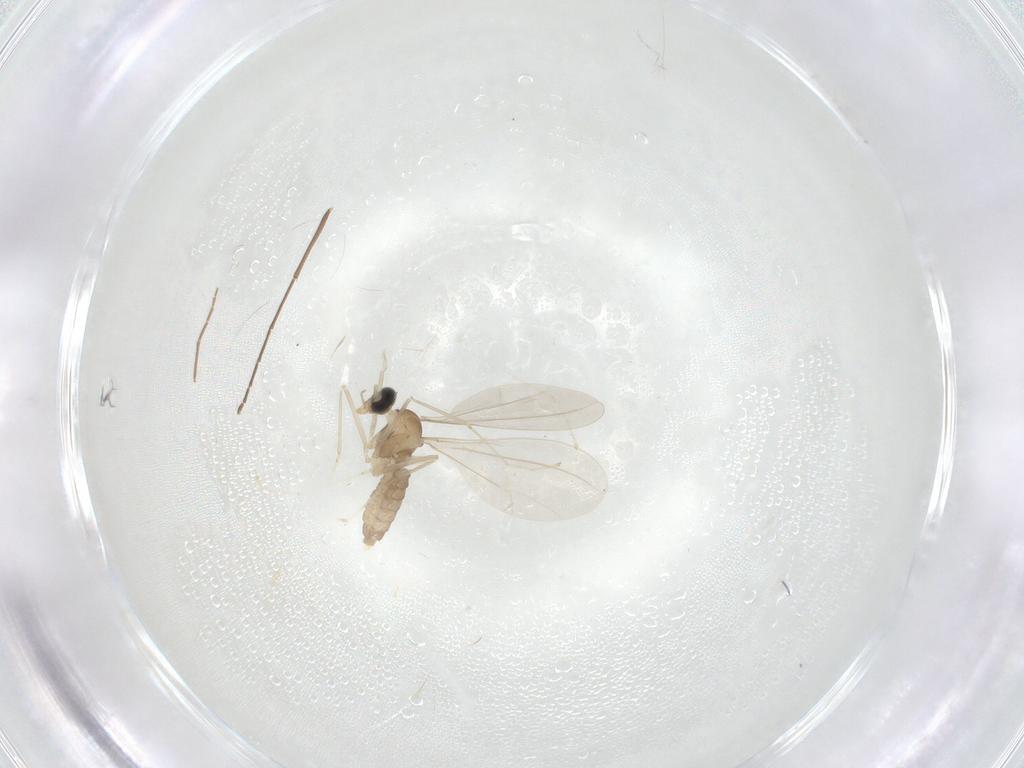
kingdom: Animalia
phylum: Arthropoda
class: Insecta
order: Diptera
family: Cecidomyiidae
